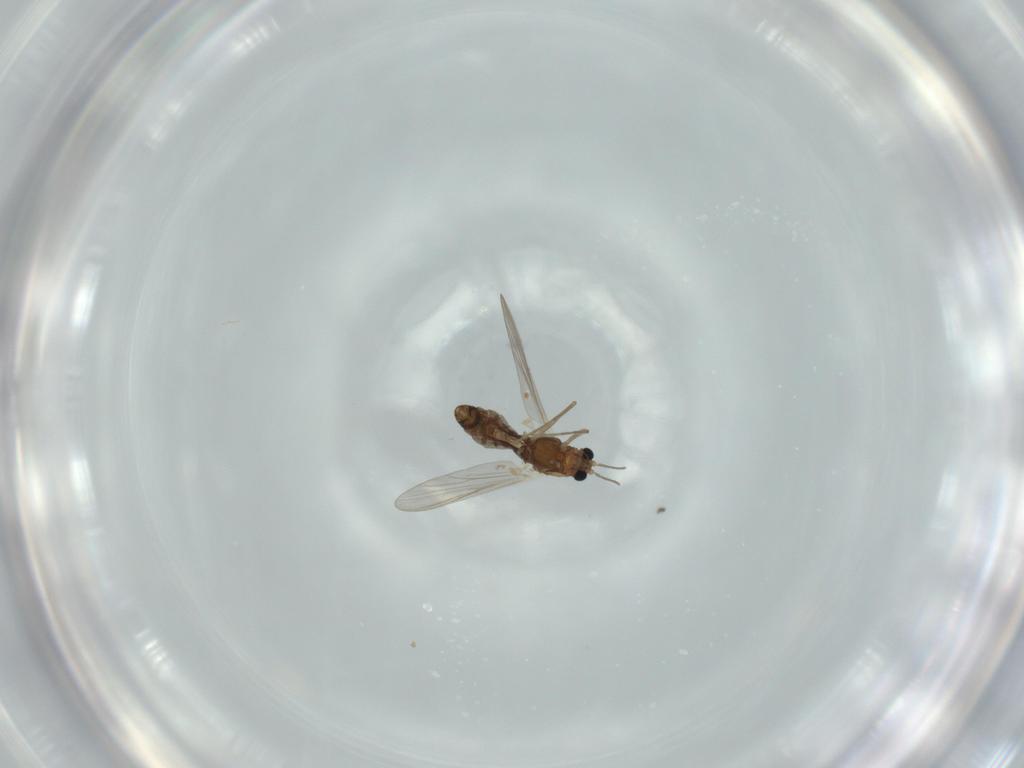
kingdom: Animalia
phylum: Arthropoda
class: Insecta
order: Diptera
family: Chironomidae
